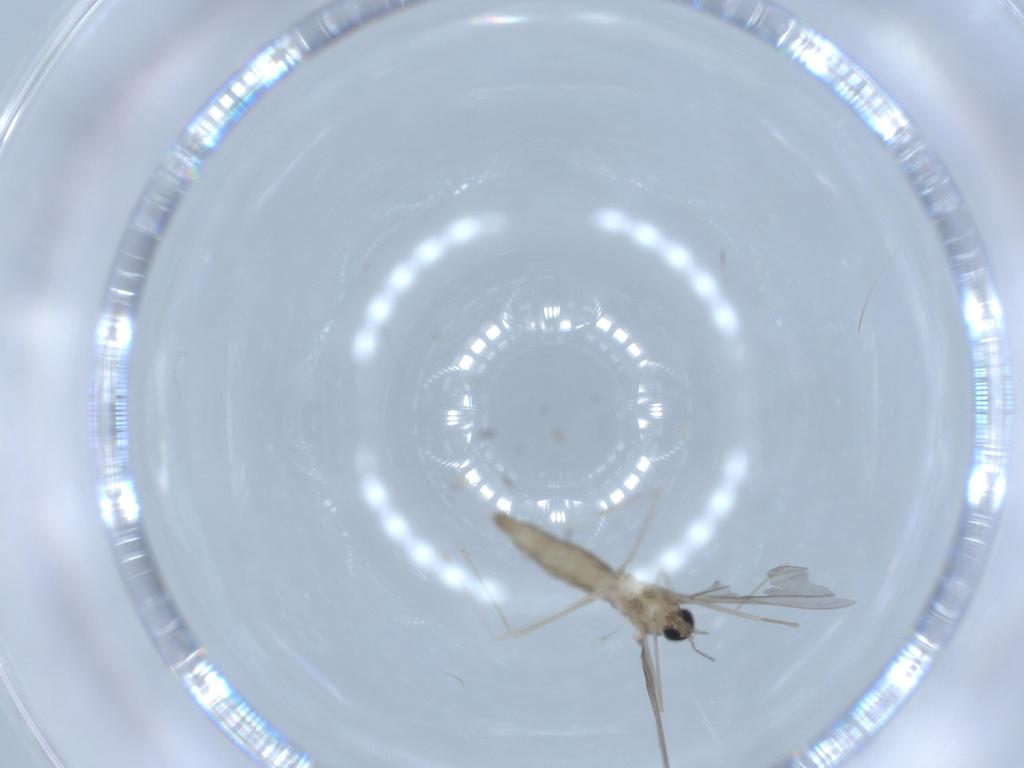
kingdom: Animalia
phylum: Arthropoda
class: Insecta
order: Diptera
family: Cecidomyiidae
